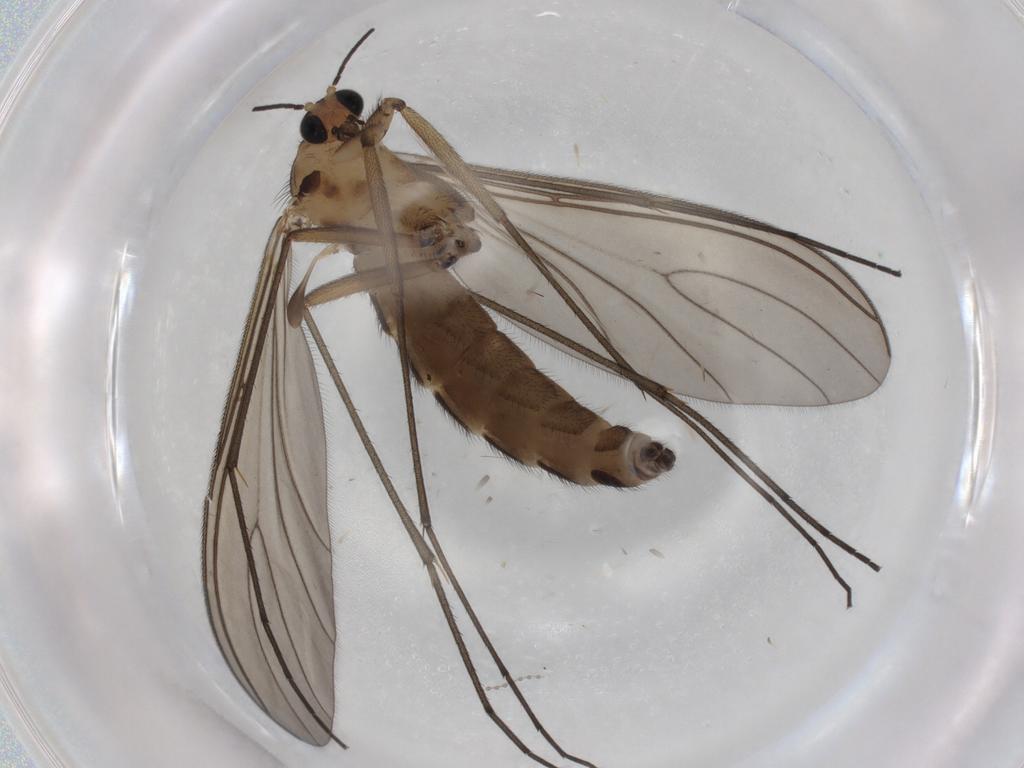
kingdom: Animalia
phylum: Arthropoda
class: Insecta
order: Diptera
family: Sciaridae
